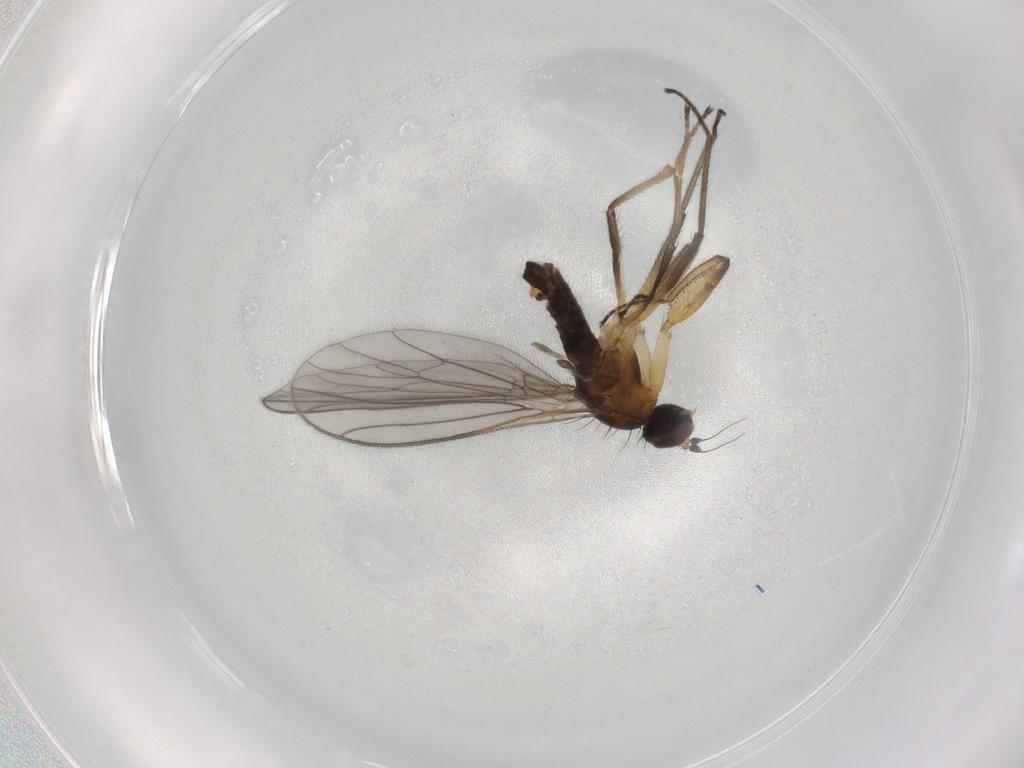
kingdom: Animalia
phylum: Arthropoda
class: Insecta
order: Diptera
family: Empididae
